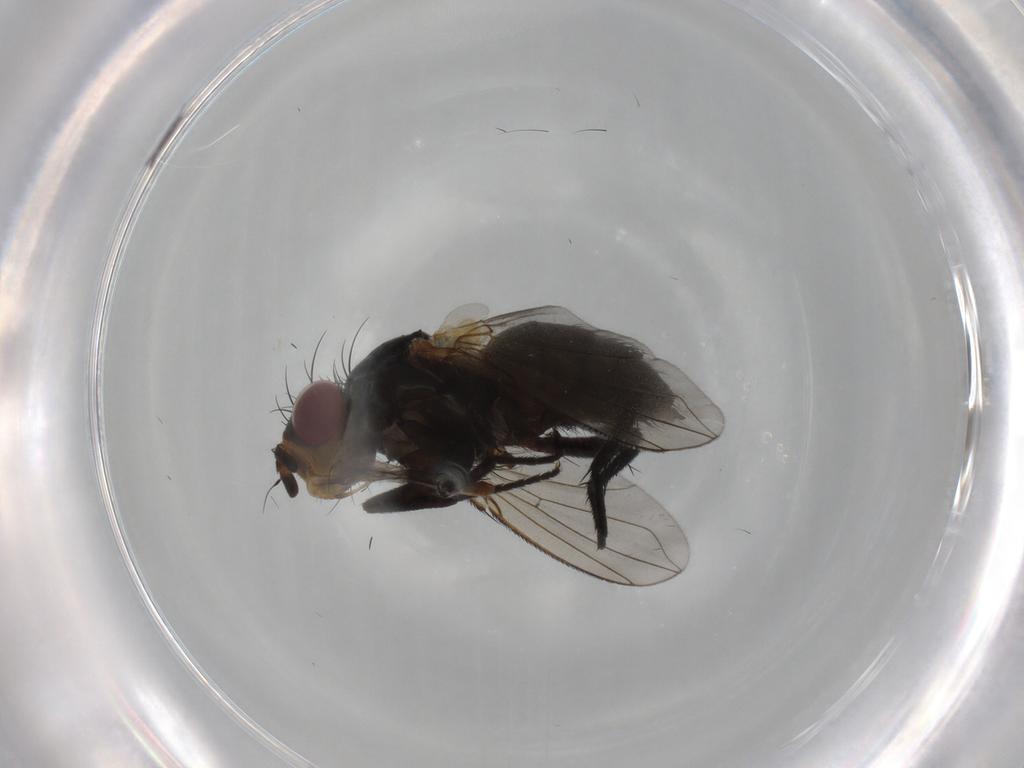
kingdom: Animalia
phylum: Arthropoda
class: Insecta
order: Diptera
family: Calliphoridae
